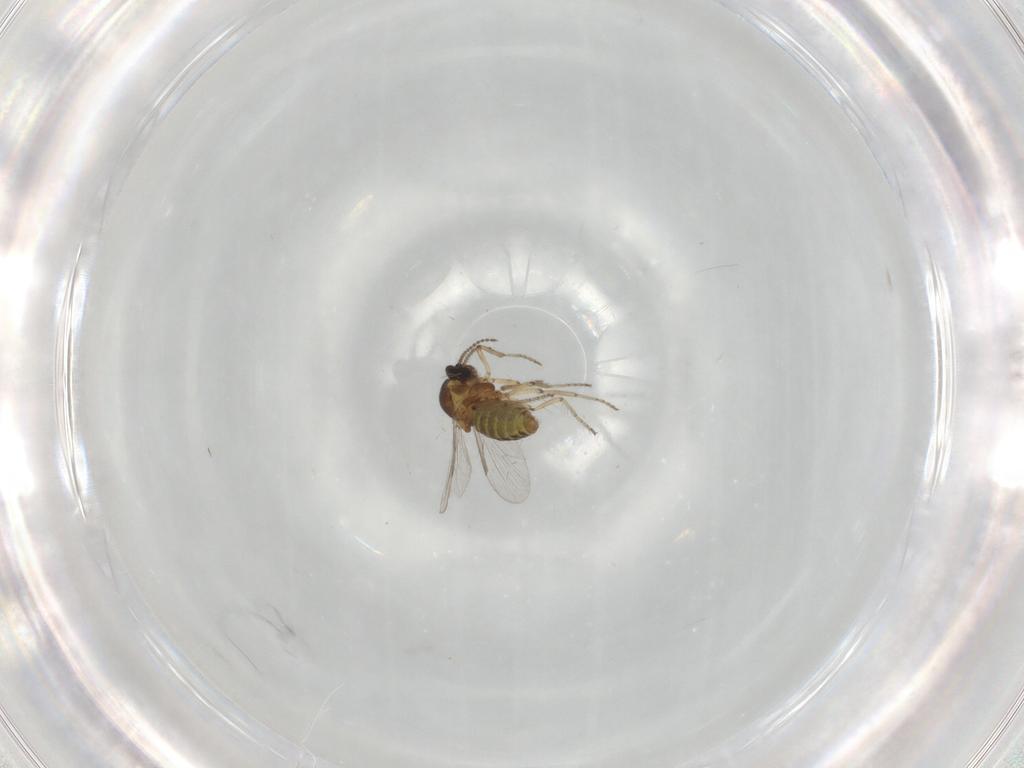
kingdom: Animalia
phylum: Arthropoda
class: Insecta
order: Diptera
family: Ceratopogonidae
